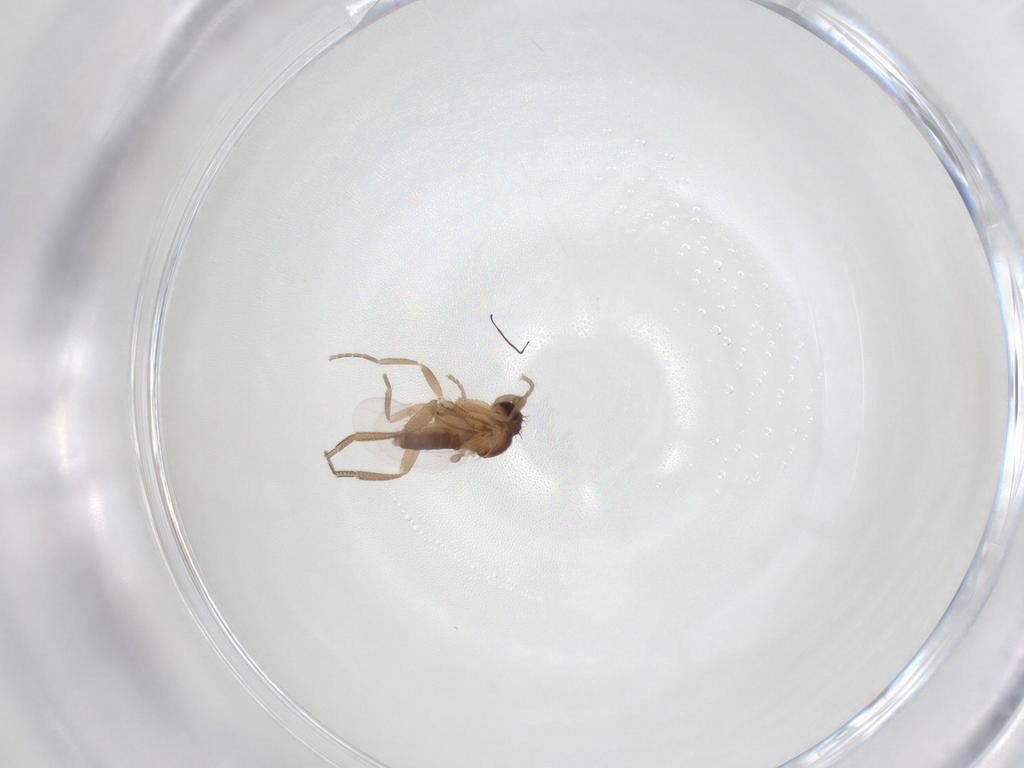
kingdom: Animalia
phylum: Arthropoda
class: Insecta
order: Diptera
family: Phoridae
